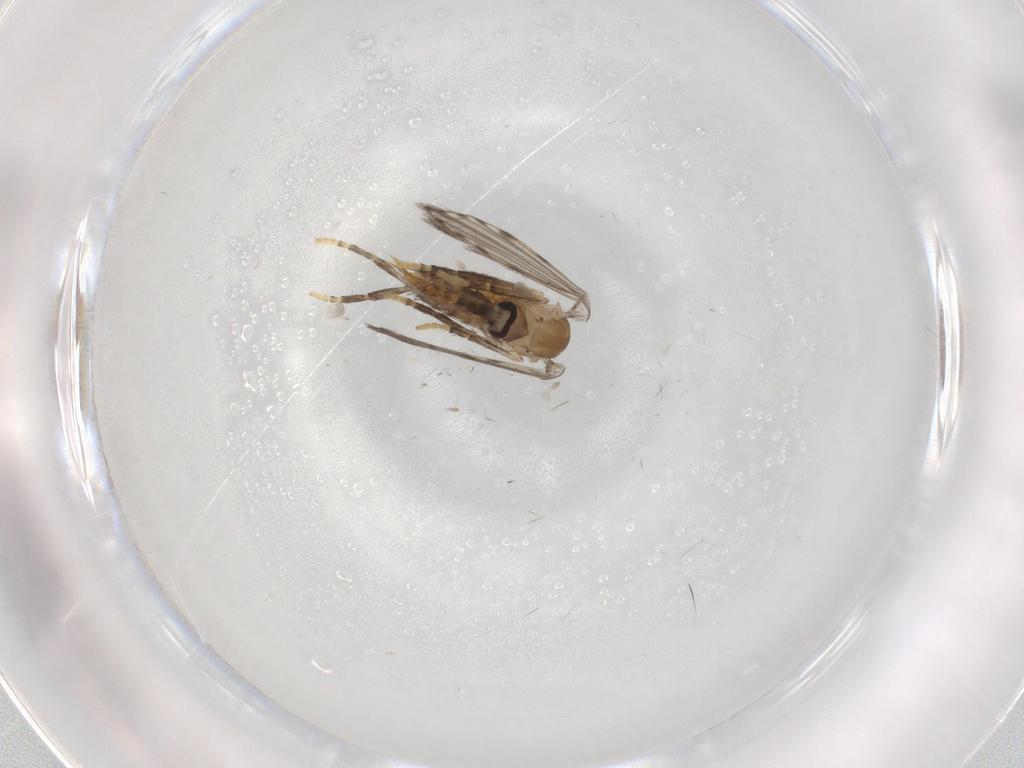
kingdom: Animalia
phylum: Arthropoda
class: Insecta
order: Diptera
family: Psychodidae
